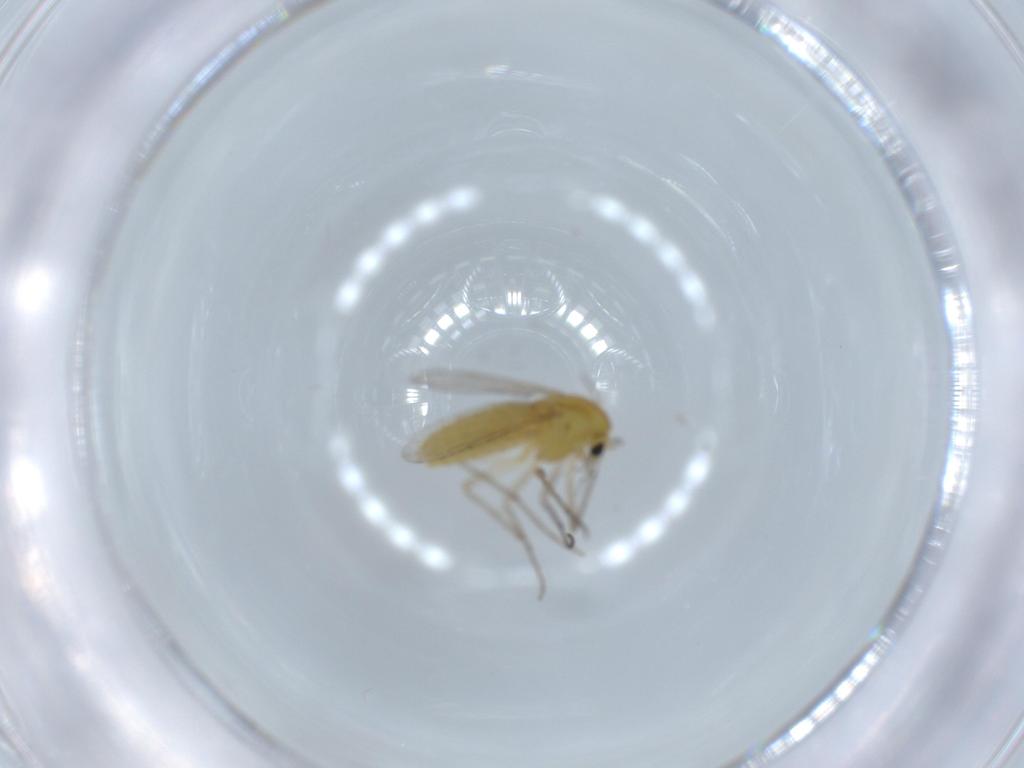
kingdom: Animalia
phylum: Arthropoda
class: Insecta
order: Diptera
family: Chironomidae
